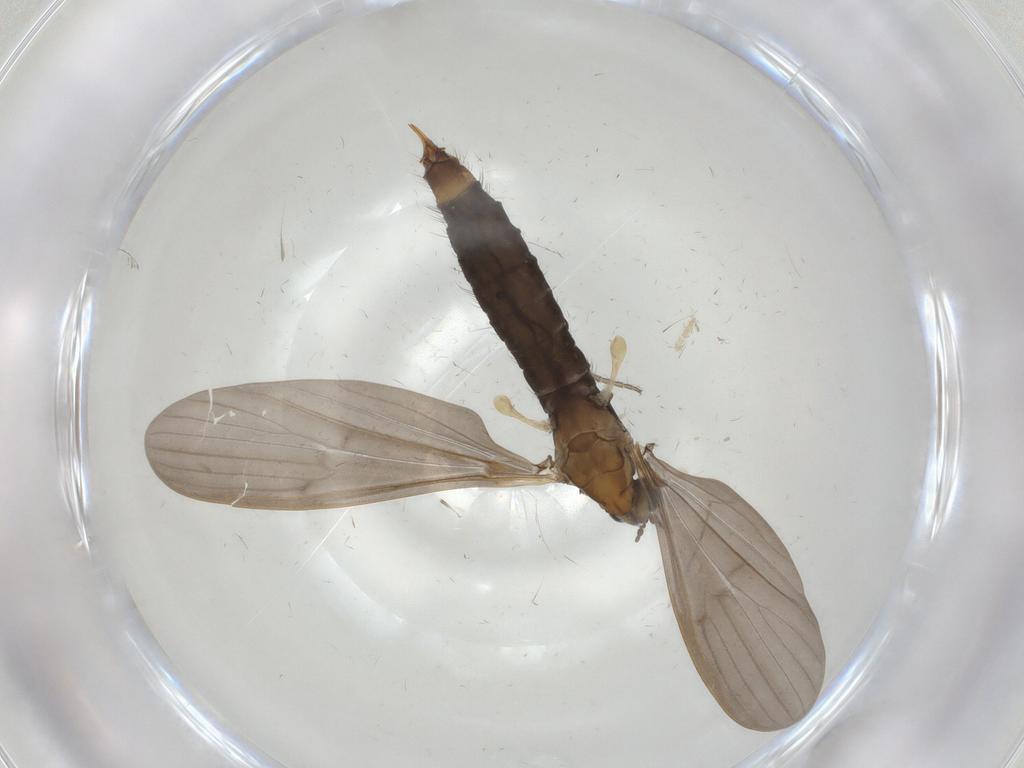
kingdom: Animalia
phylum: Arthropoda
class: Insecta
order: Diptera
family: Limoniidae
